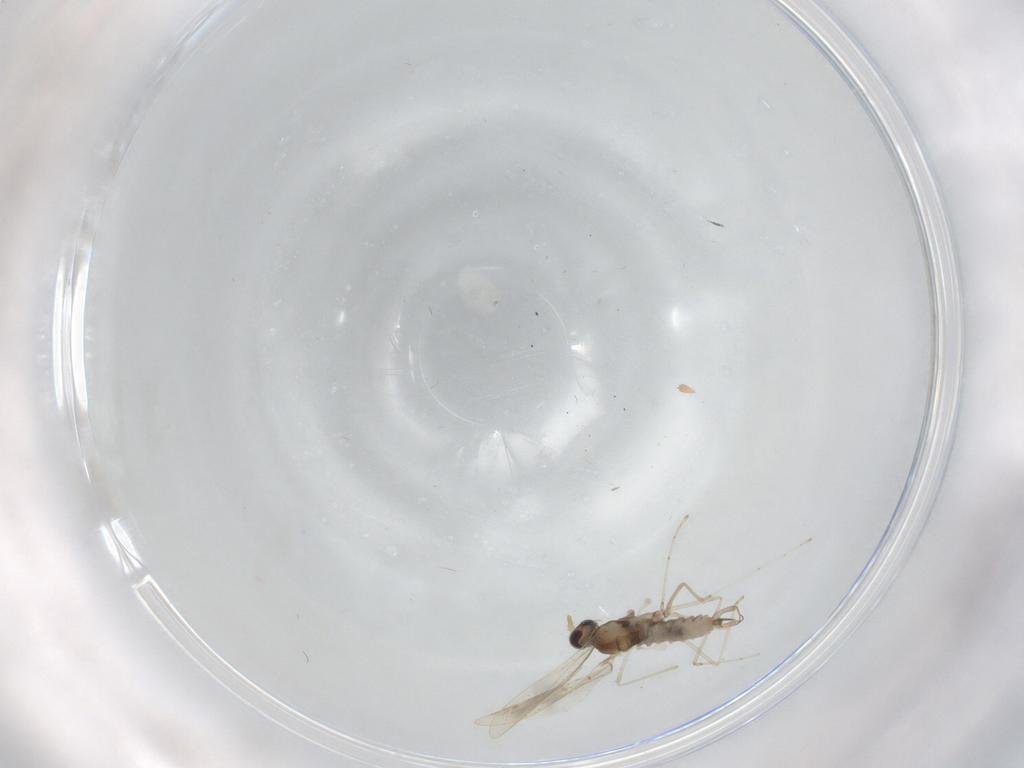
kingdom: Animalia
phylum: Arthropoda
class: Insecta
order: Diptera
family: Cecidomyiidae
